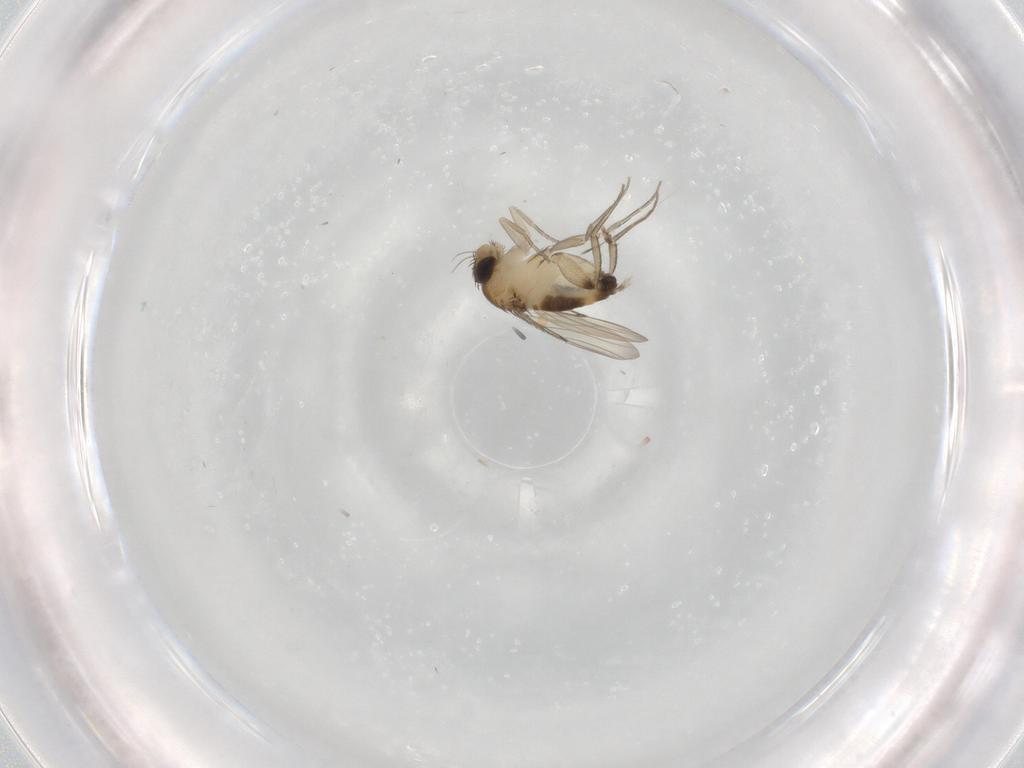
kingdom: Animalia
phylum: Arthropoda
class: Insecta
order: Diptera
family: Phoridae
